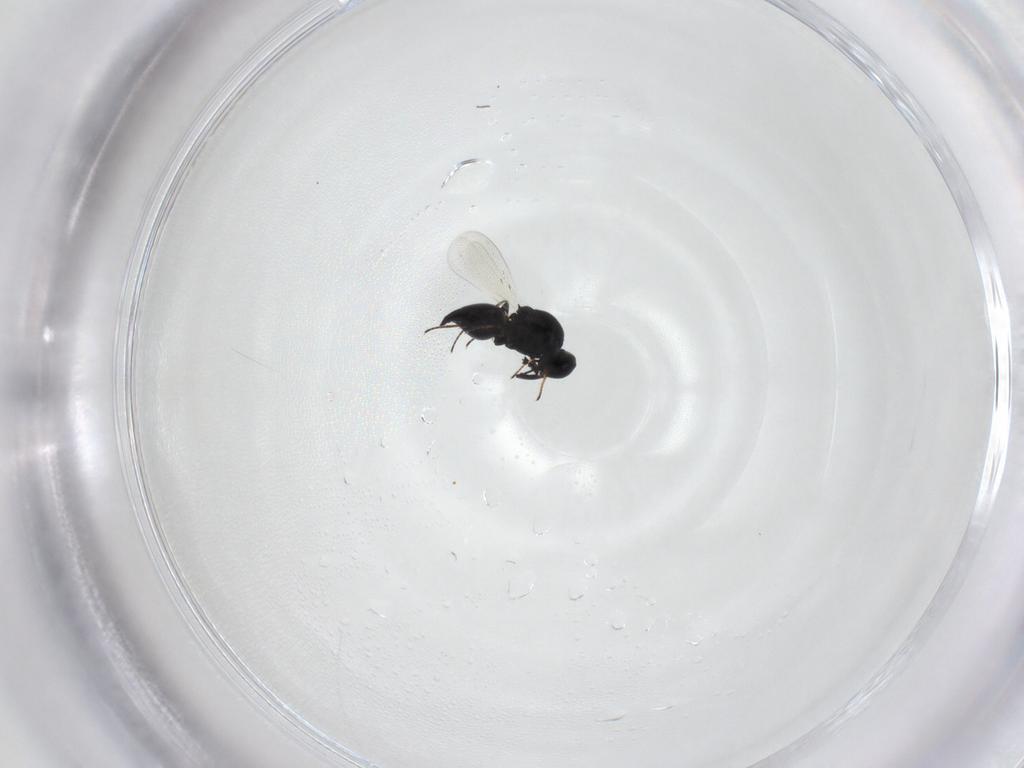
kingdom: Animalia
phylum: Arthropoda
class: Insecta
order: Hymenoptera
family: Platygastridae
